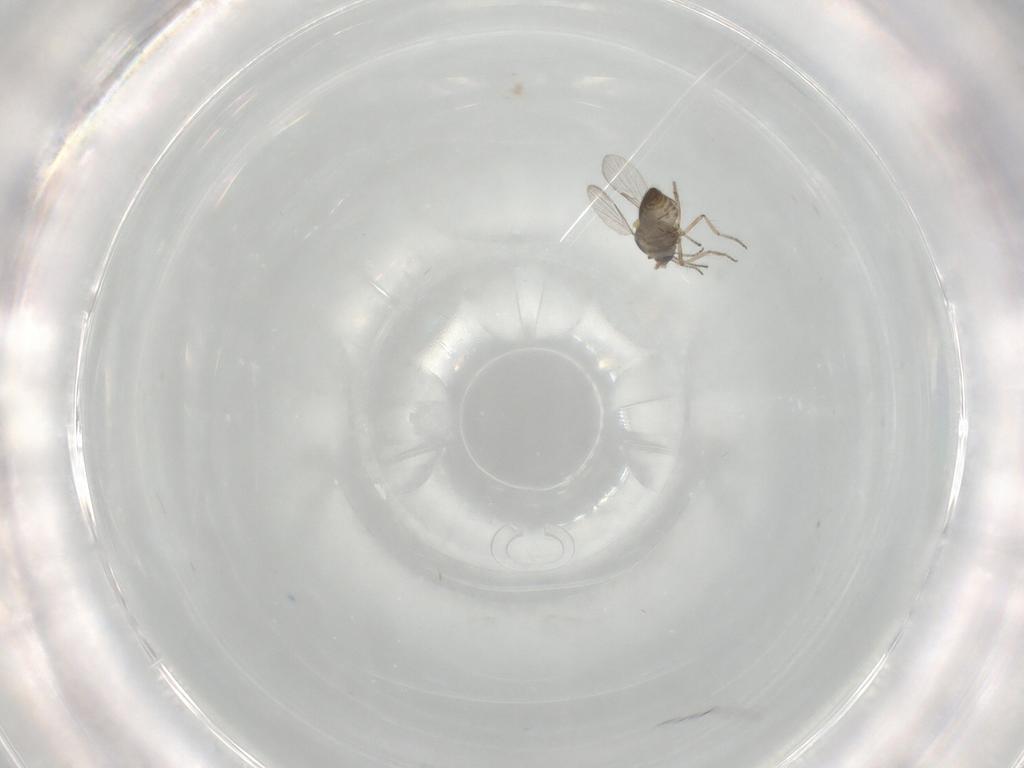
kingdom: Animalia
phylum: Arthropoda
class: Insecta
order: Diptera
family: Ceratopogonidae
